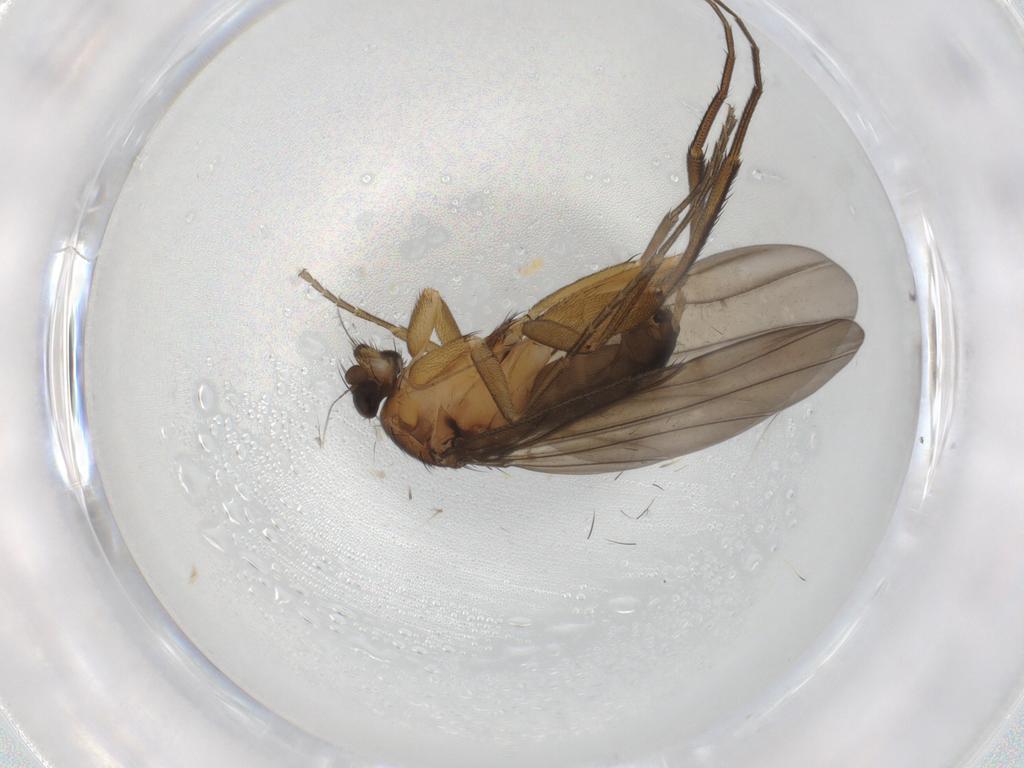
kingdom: Animalia
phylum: Arthropoda
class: Insecta
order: Diptera
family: Phoridae
